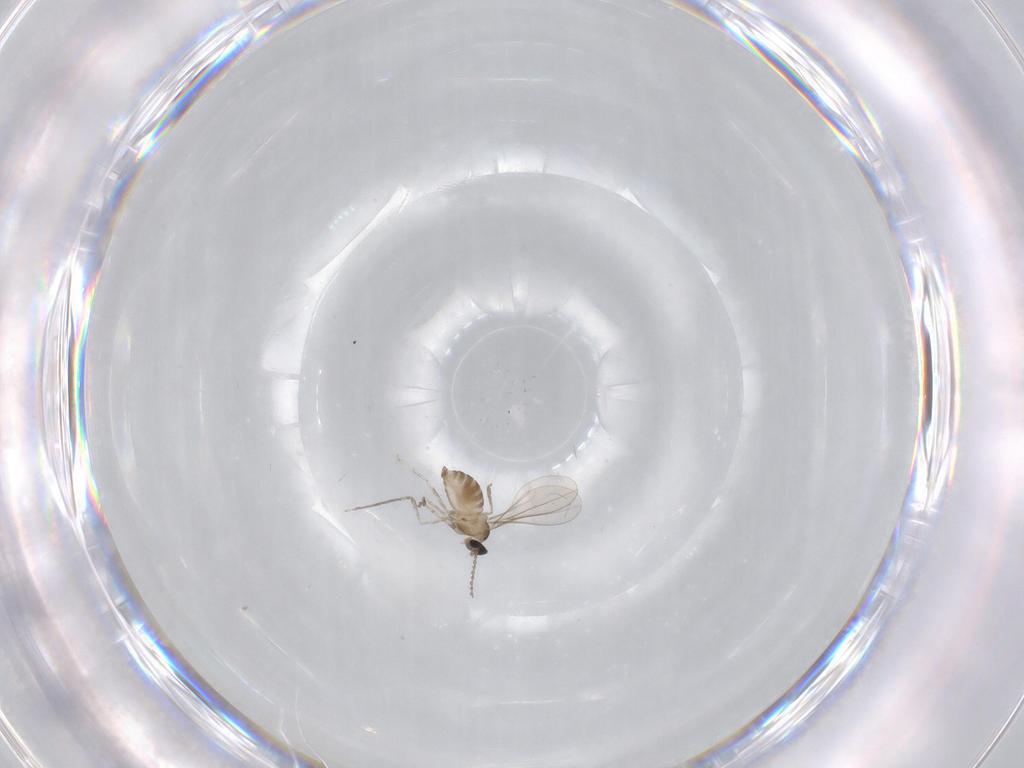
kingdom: Animalia
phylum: Arthropoda
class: Insecta
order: Diptera
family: Cecidomyiidae
